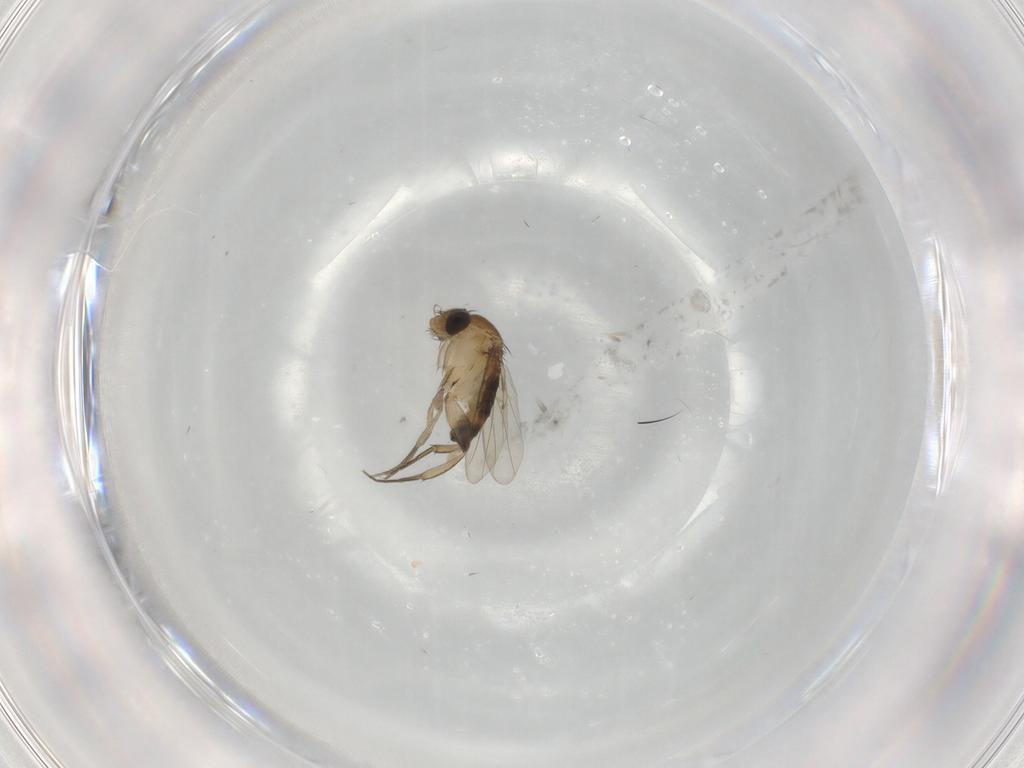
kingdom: Animalia
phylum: Arthropoda
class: Insecta
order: Diptera
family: Phoridae
